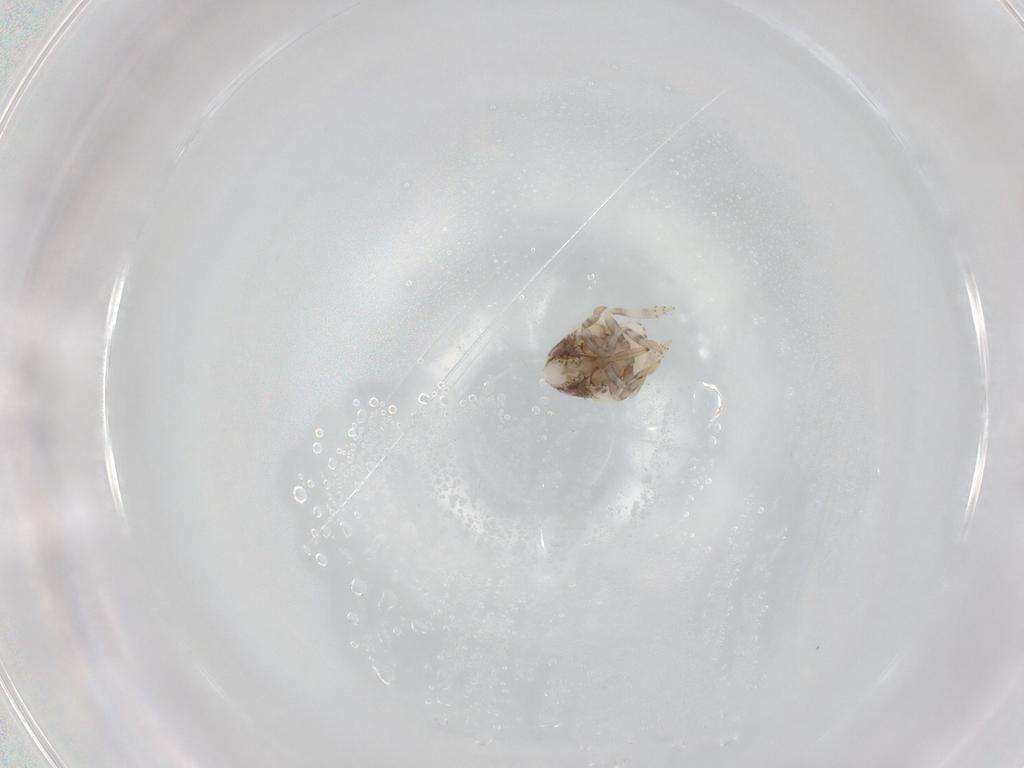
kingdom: Animalia
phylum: Arthropoda
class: Insecta
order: Hemiptera
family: Acanaloniidae
